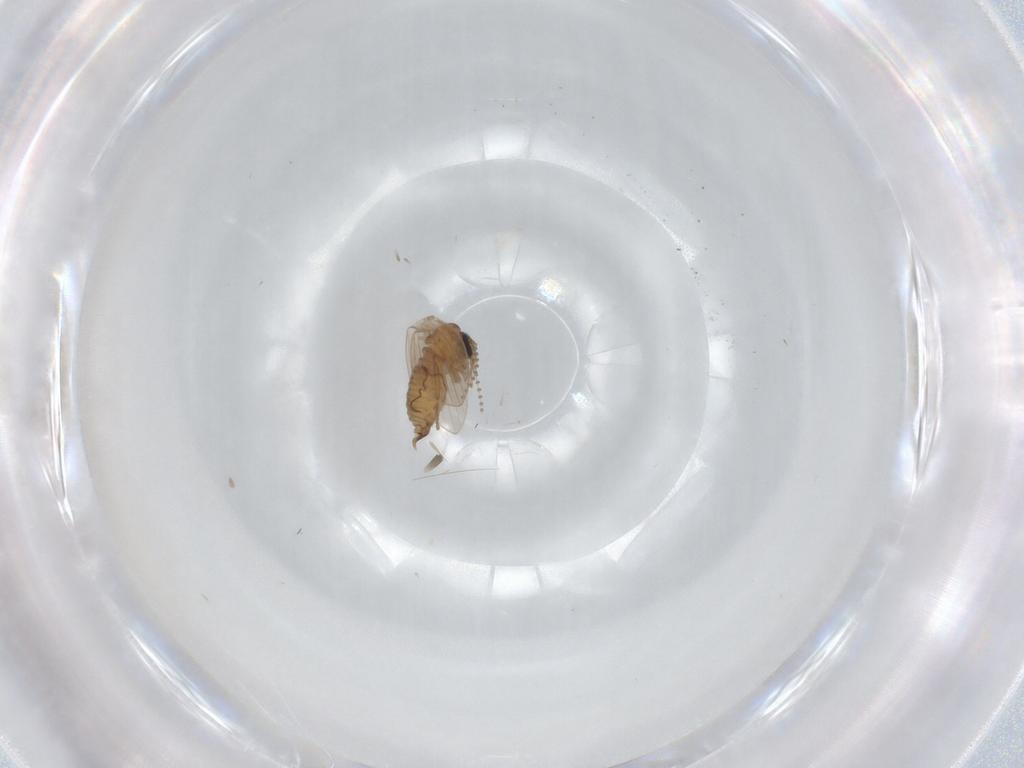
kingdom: Animalia
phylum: Arthropoda
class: Insecta
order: Diptera
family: Psychodidae
